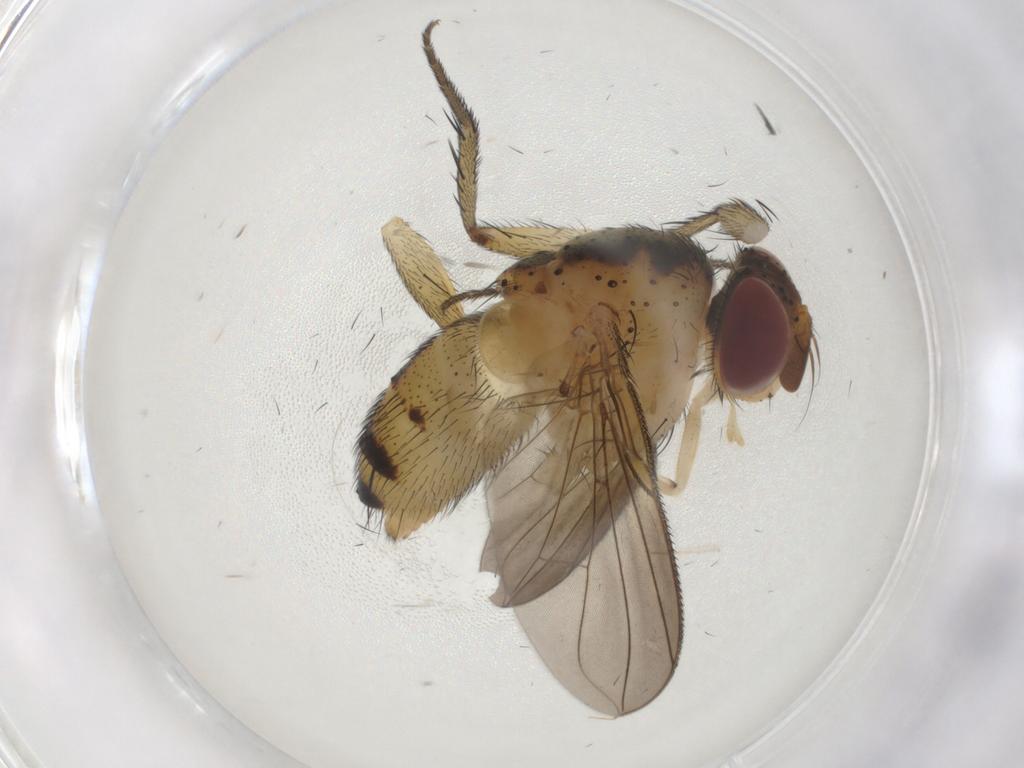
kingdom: Animalia
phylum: Arthropoda
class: Insecta
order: Diptera
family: Tachinidae
